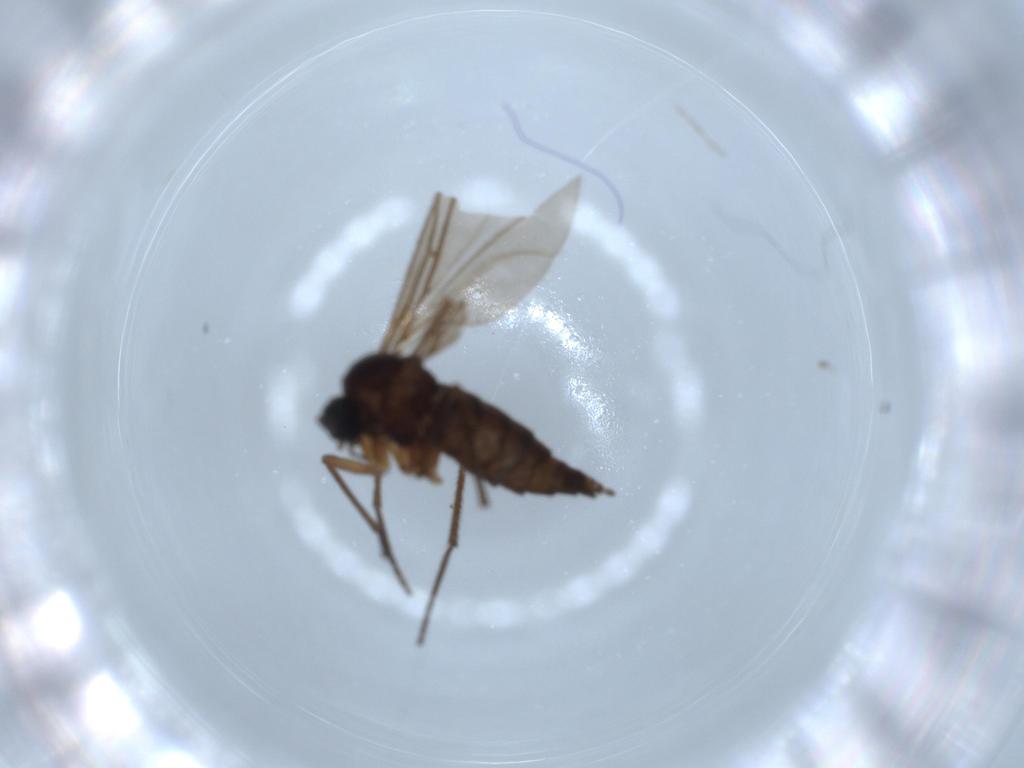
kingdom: Animalia
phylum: Arthropoda
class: Insecta
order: Diptera
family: Sciaridae
